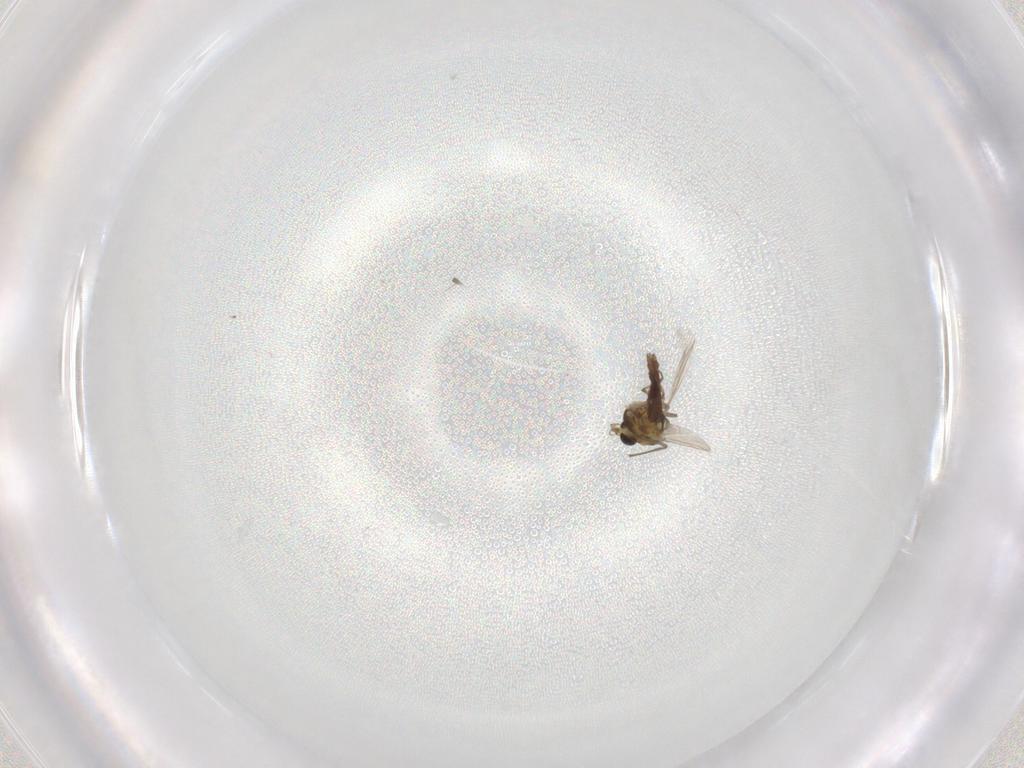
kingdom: Animalia
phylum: Arthropoda
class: Insecta
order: Diptera
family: Chironomidae
